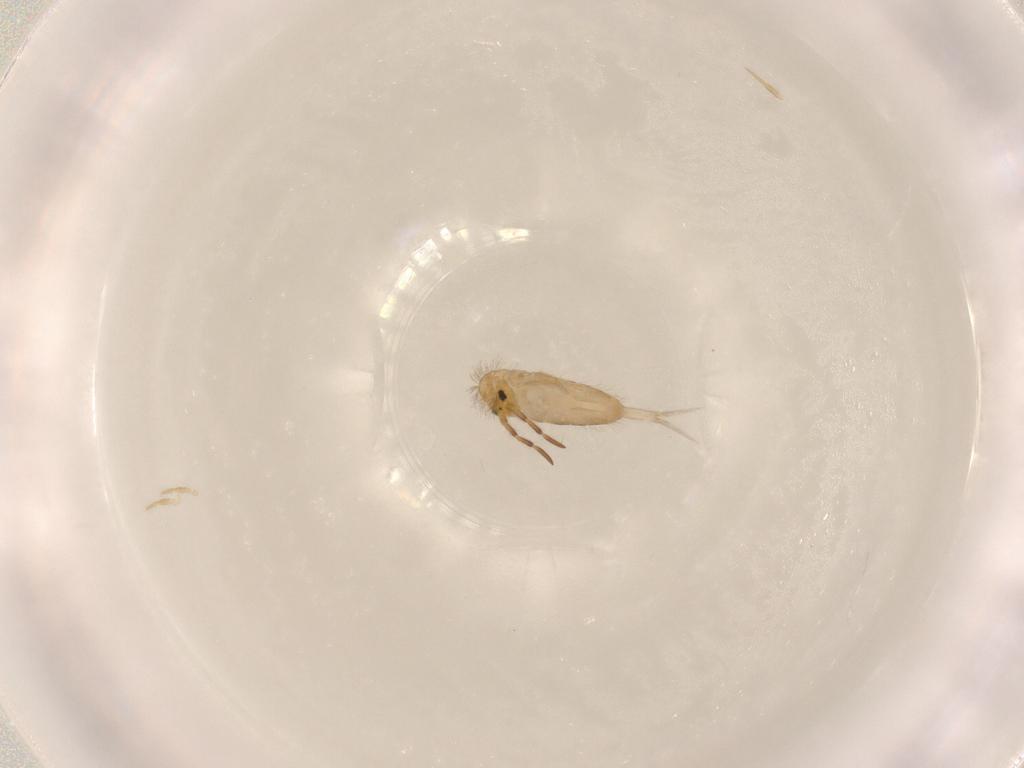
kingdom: Animalia
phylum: Arthropoda
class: Collembola
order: Entomobryomorpha
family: Entomobryidae
